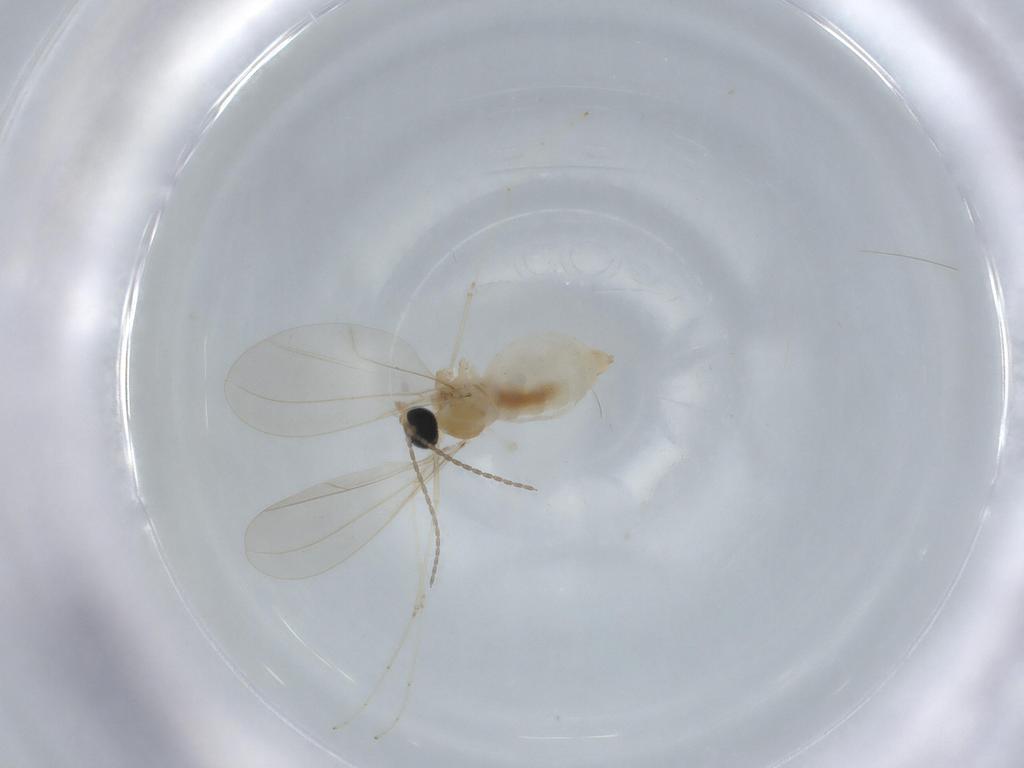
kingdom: Animalia
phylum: Arthropoda
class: Insecta
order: Diptera
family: Cecidomyiidae
